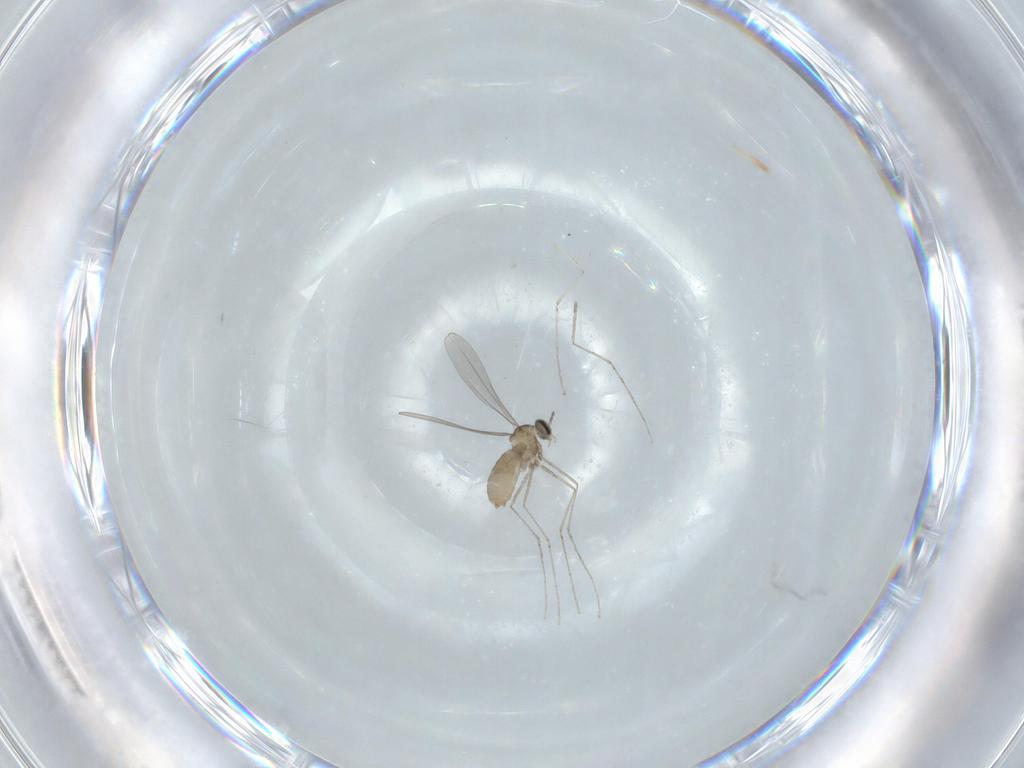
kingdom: Animalia
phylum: Arthropoda
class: Insecta
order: Diptera
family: Cecidomyiidae
